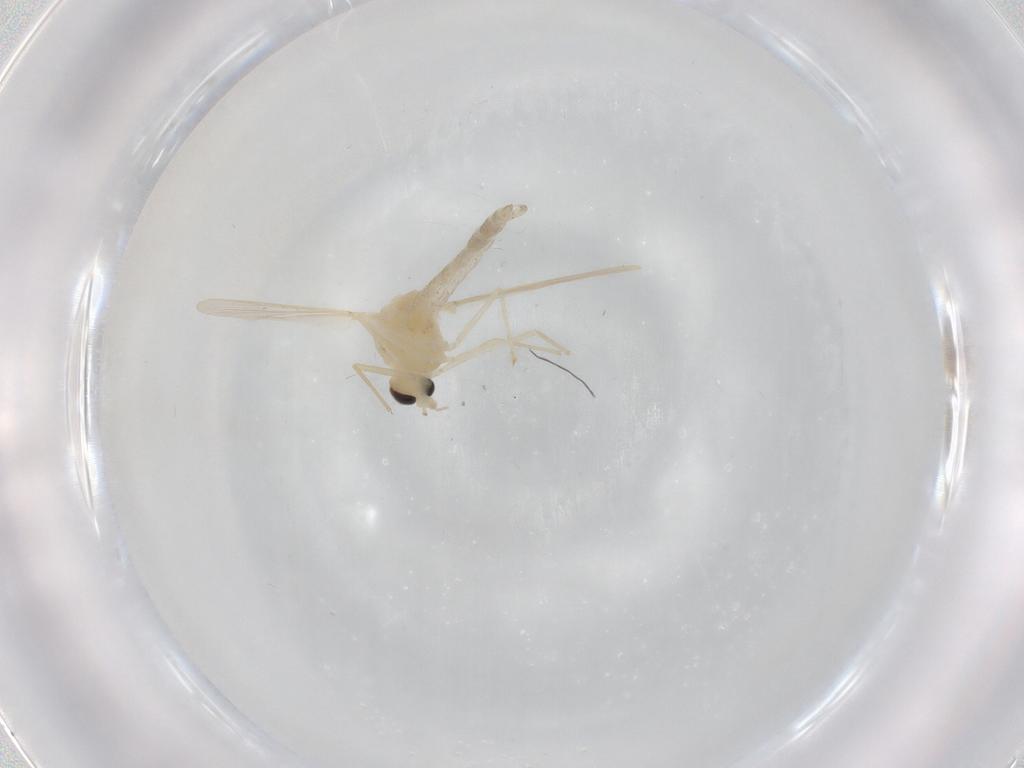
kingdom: Animalia
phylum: Arthropoda
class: Insecta
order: Diptera
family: Chironomidae
